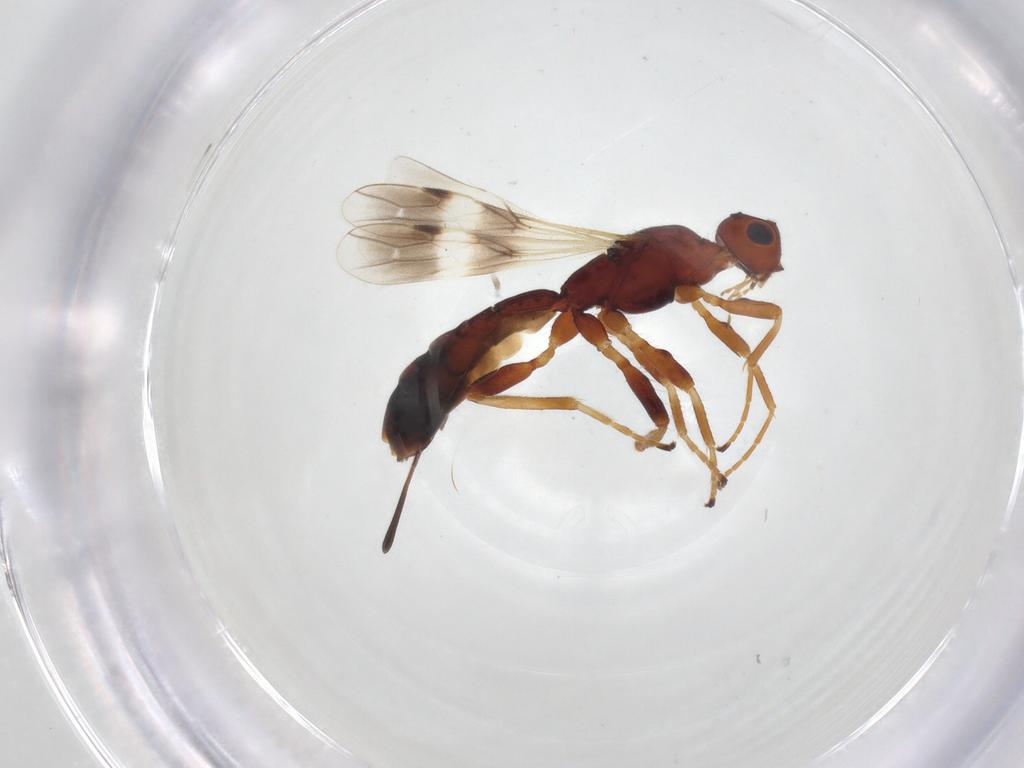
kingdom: Animalia
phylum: Arthropoda
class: Insecta
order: Hymenoptera
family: Braconidae
